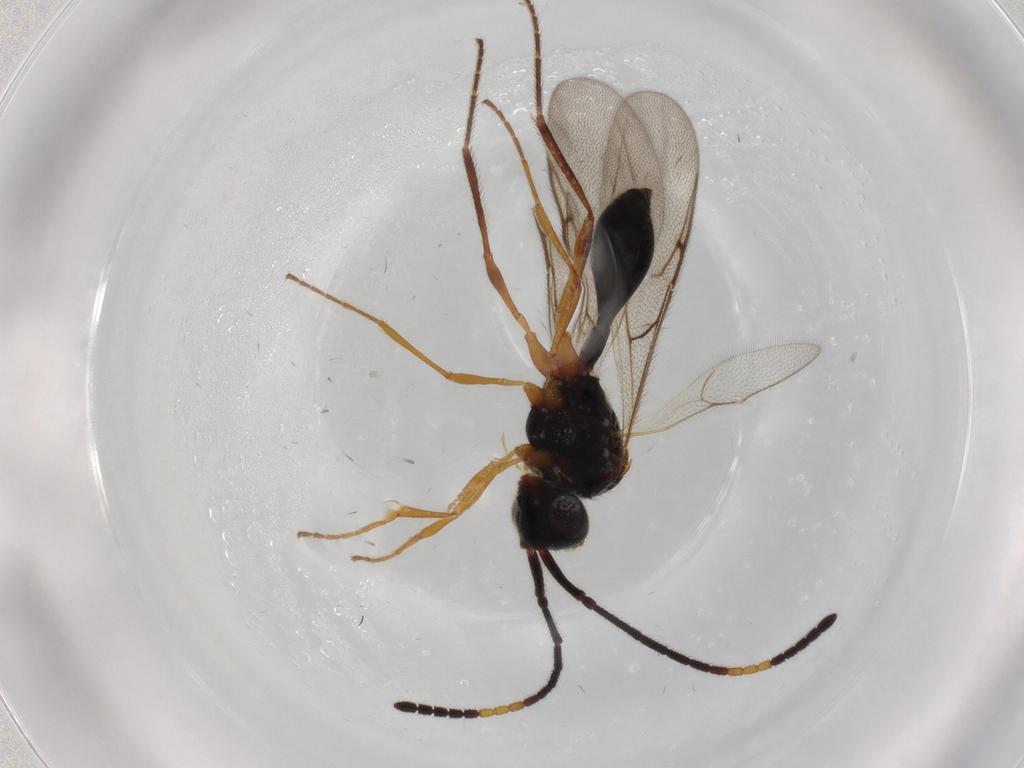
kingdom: Animalia
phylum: Arthropoda
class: Insecta
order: Hymenoptera
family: Diapriidae
